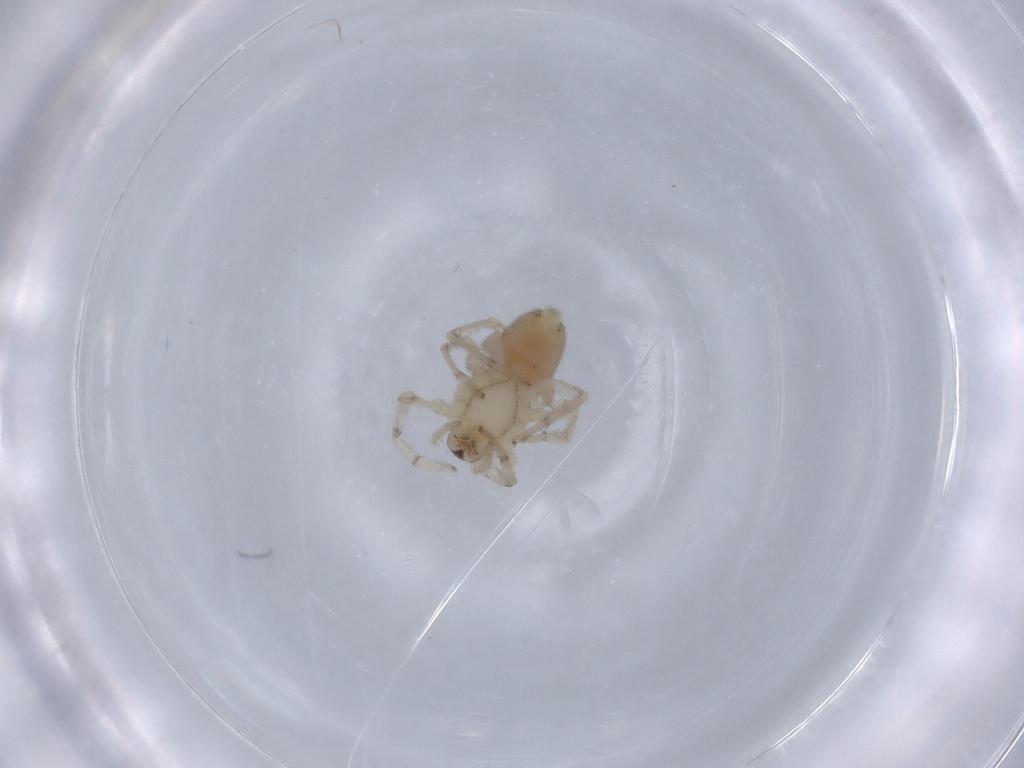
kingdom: Animalia
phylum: Arthropoda
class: Arachnida
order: Araneae
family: Gnaphosidae
